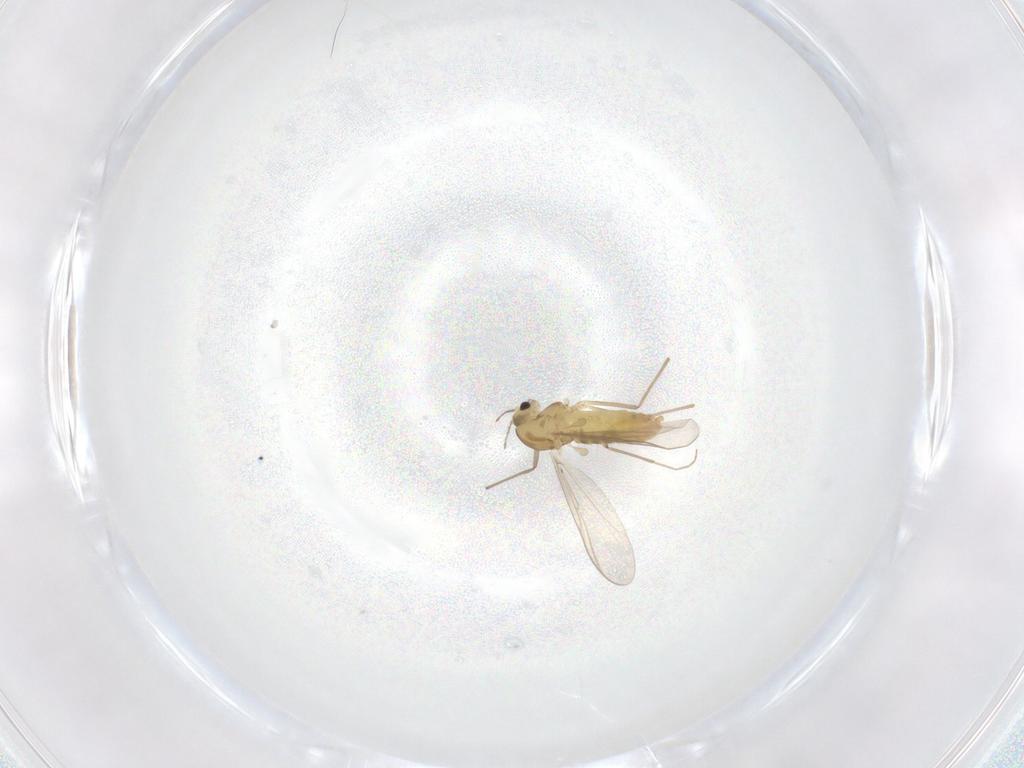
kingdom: Animalia
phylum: Arthropoda
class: Insecta
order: Diptera
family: Chironomidae
